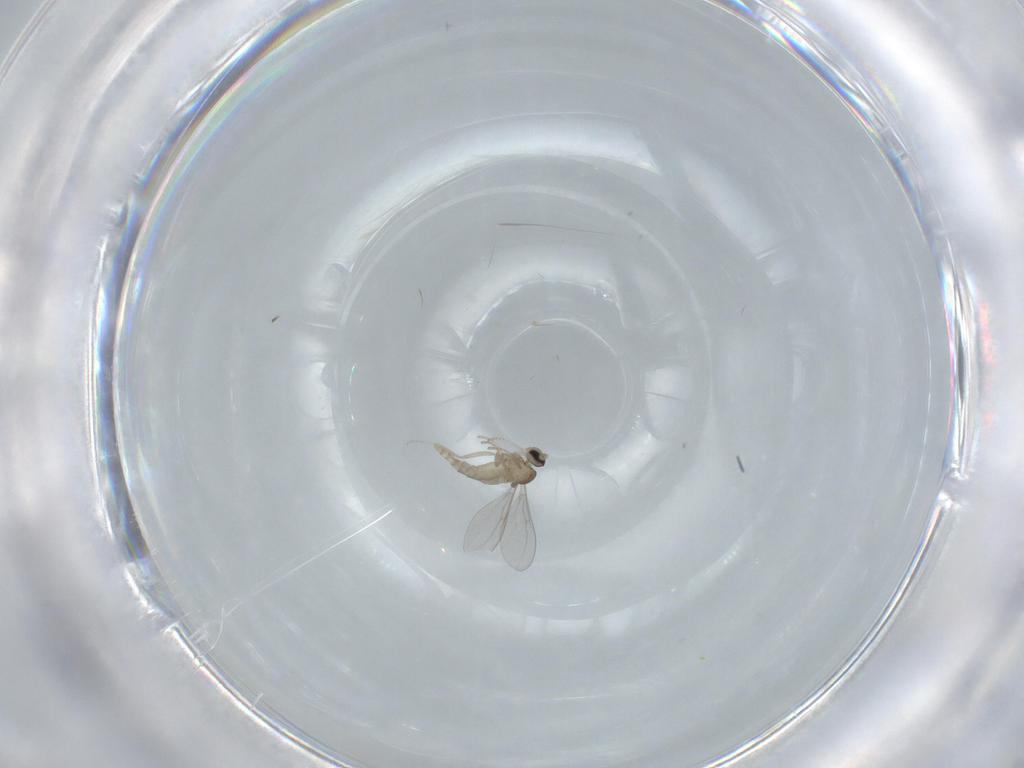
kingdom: Animalia
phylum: Arthropoda
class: Insecta
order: Diptera
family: Cecidomyiidae
